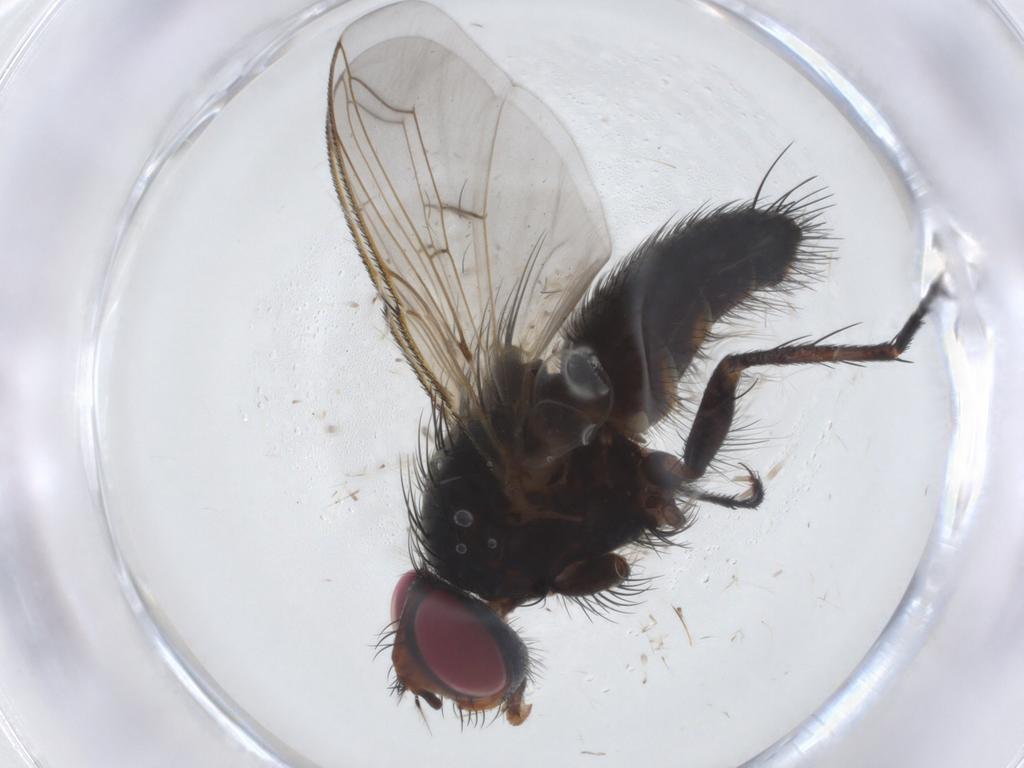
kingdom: Animalia
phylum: Arthropoda
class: Insecta
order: Diptera
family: Tachinidae
